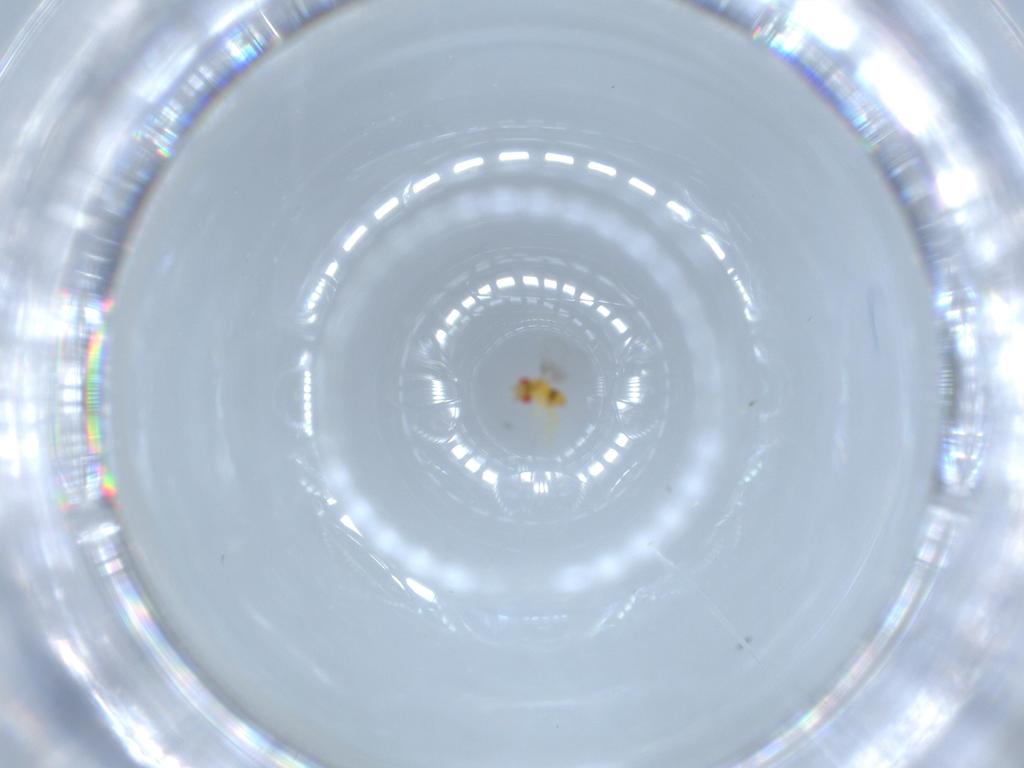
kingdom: Animalia
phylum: Arthropoda
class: Insecta
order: Hymenoptera
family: Trichogrammatidae
